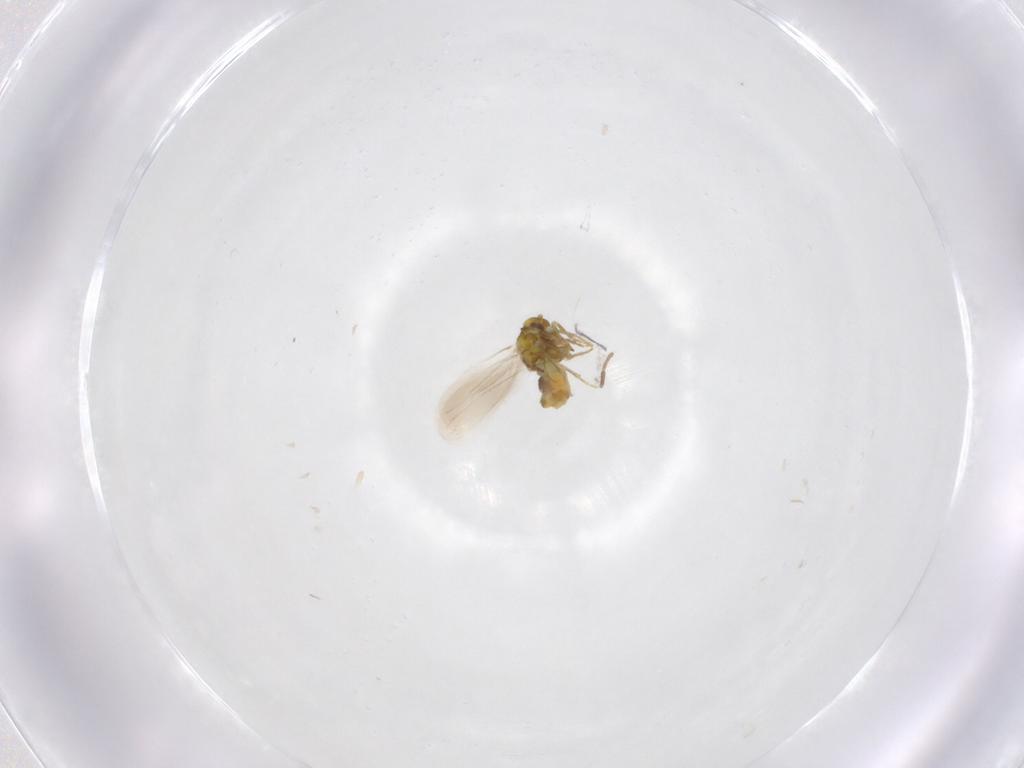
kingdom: Animalia
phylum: Arthropoda
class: Insecta
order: Hemiptera
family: Aleyrodidae
